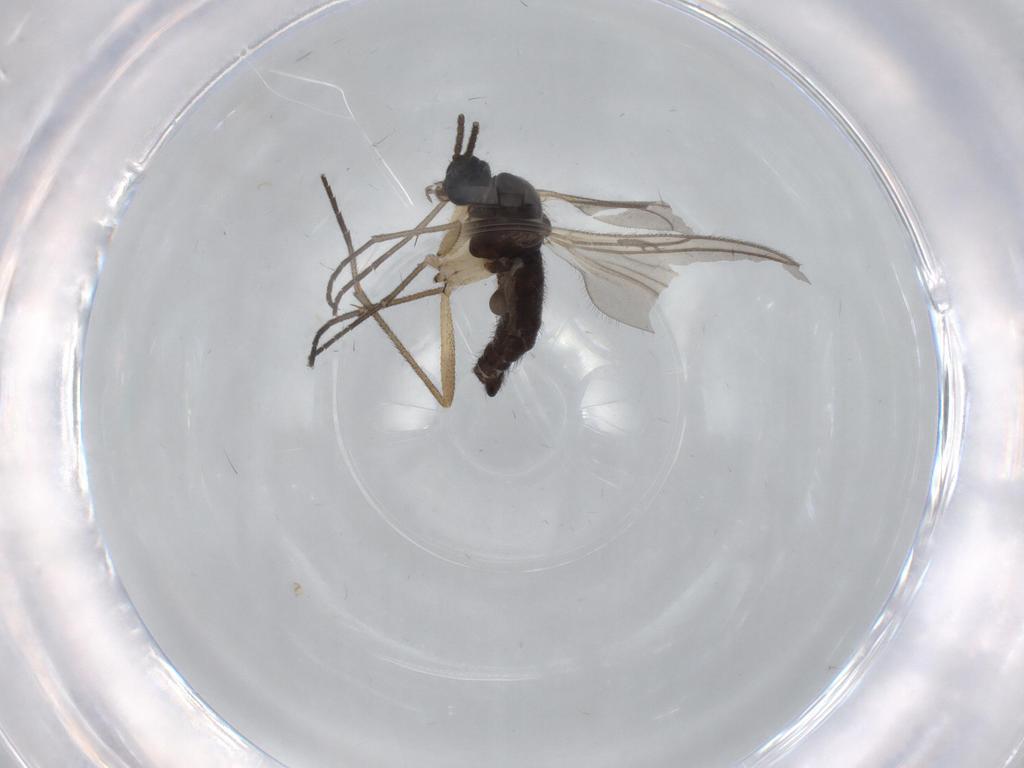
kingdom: Animalia
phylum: Arthropoda
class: Insecta
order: Diptera
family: Sciaridae
